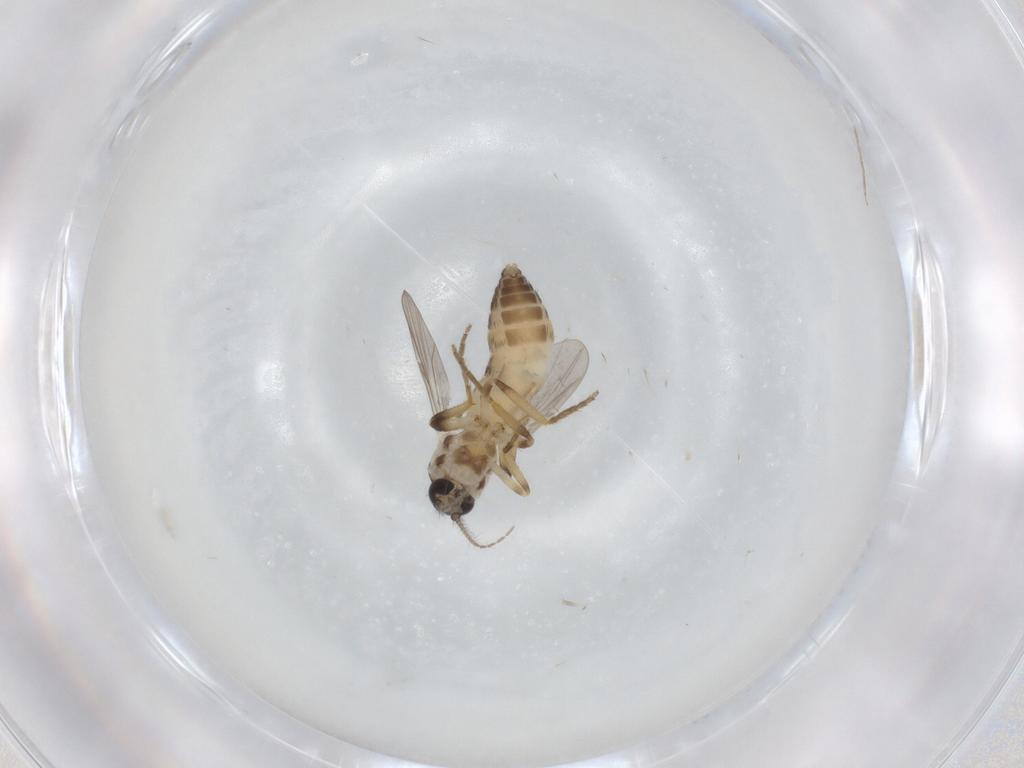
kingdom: Animalia
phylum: Arthropoda
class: Insecta
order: Diptera
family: Ceratopogonidae
